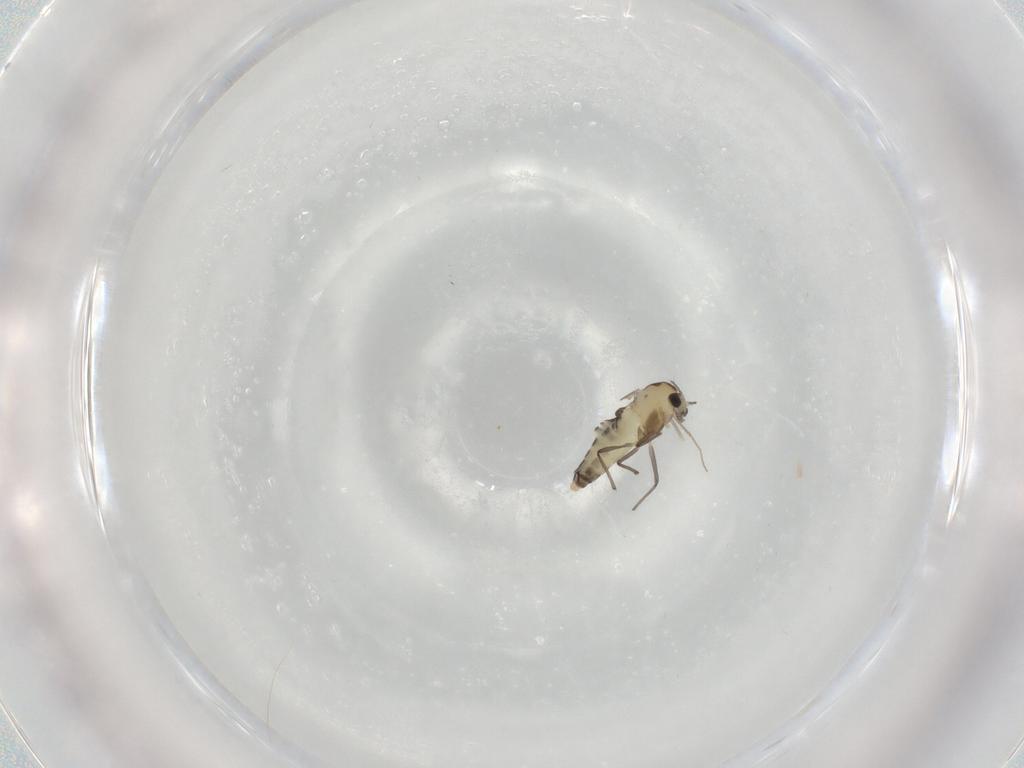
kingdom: Animalia
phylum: Arthropoda
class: Insecta
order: Diptera
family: Chironomidae
